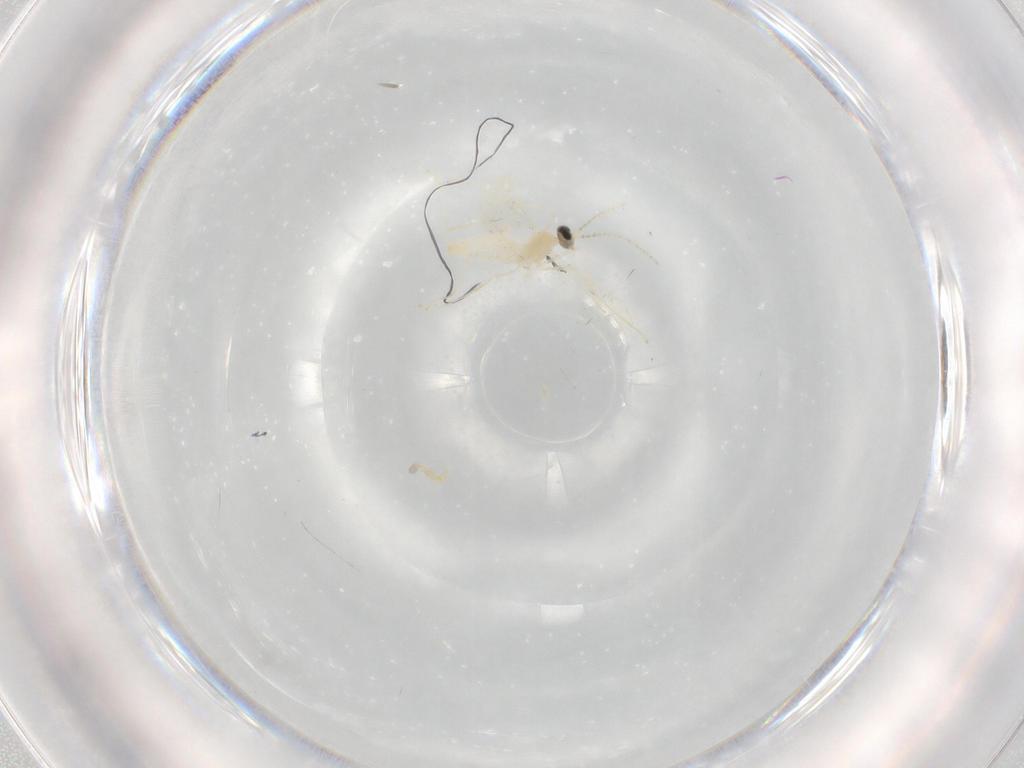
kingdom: Animalia
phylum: Arthropoda
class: Insecta
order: Diptera
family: Cecidomyiidae
